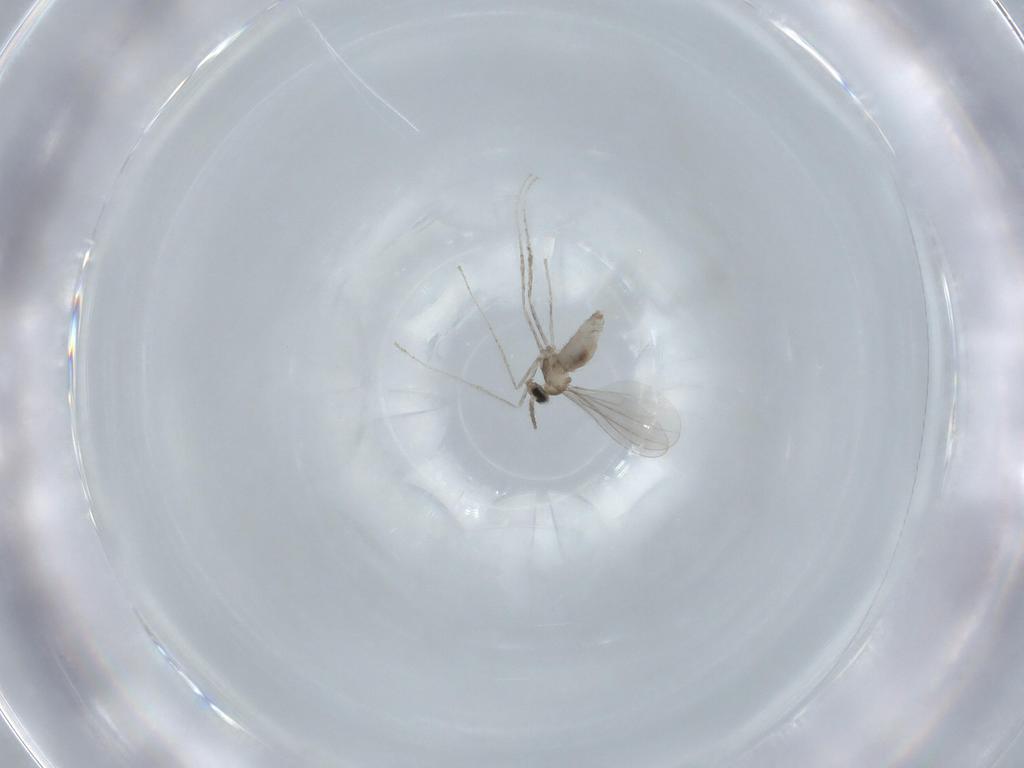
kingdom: Animalia
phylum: Arthropoda
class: Insecta
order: Diptera
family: Cecidomyiidae
